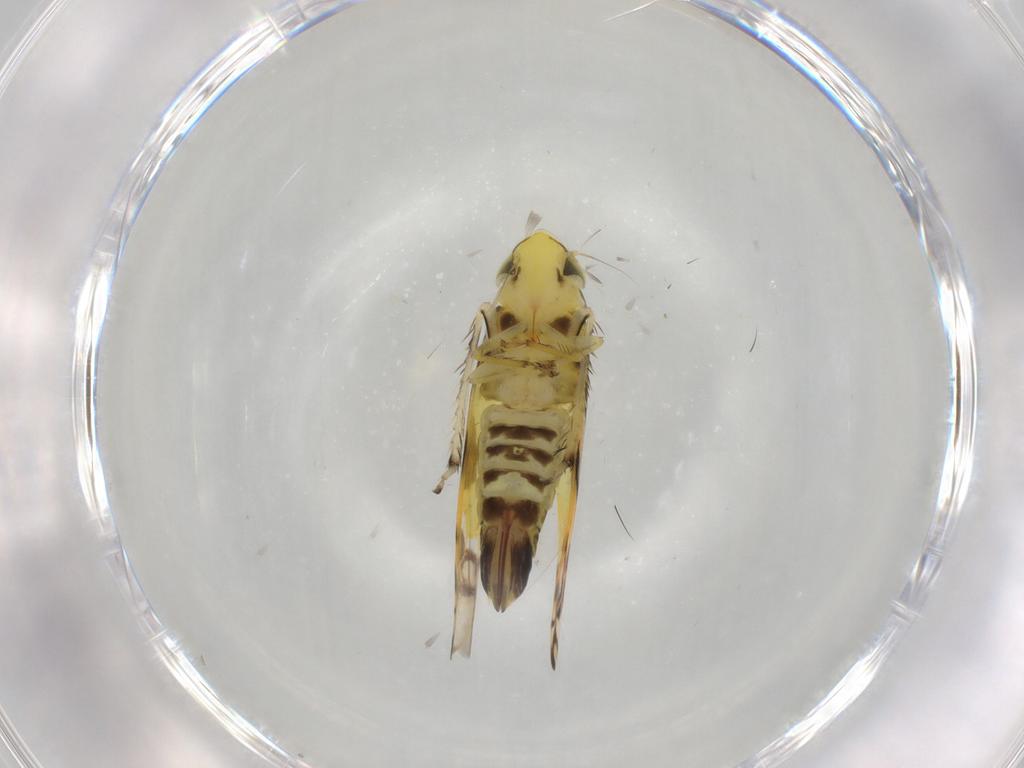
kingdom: Animalia
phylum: Arthropoda
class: Insecta
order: Hemiptera
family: Cicadellidae
